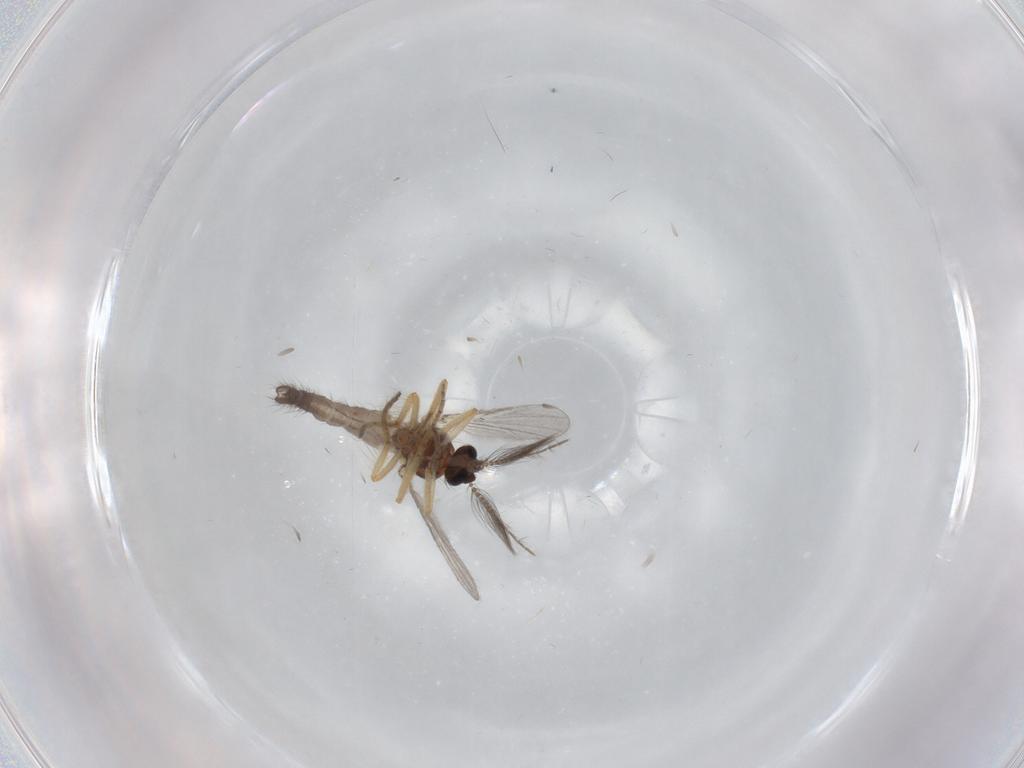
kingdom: Animalia
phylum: Arthropoda
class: Insecta
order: Diptera
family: Ceratopogonidae
